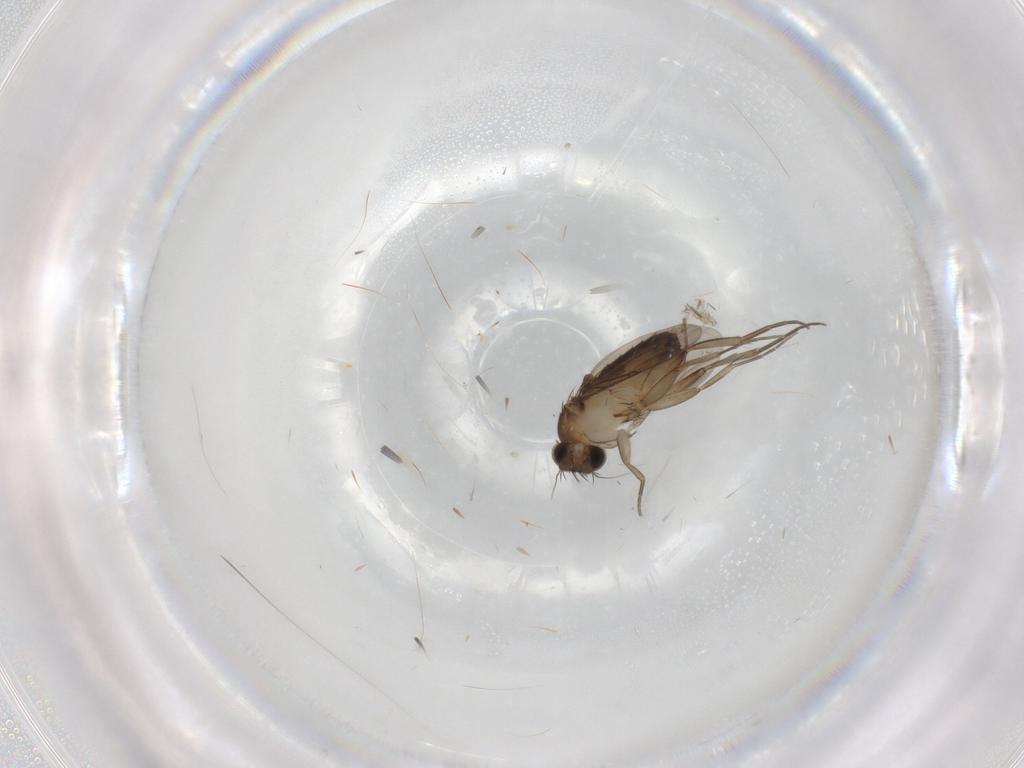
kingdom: Animalia
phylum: Arthropoda
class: Insecta
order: Diptera
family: Phoridae
